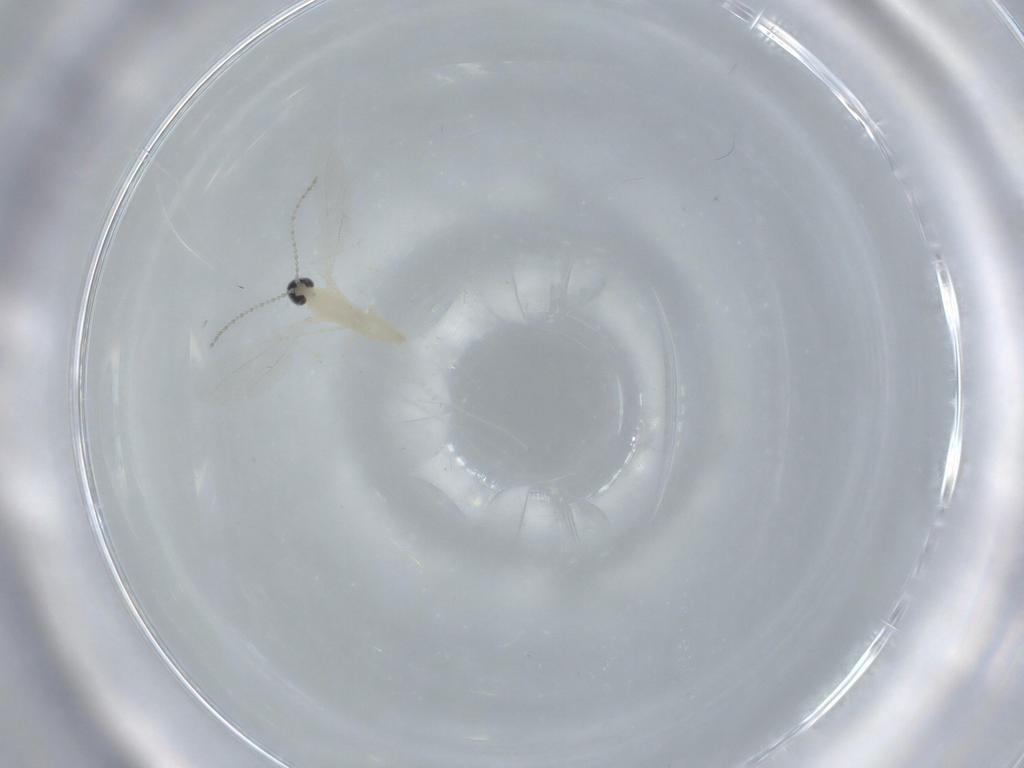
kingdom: Animalia
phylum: Arthropoda
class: Insecta
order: Diptera
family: Cecidomyiidae
